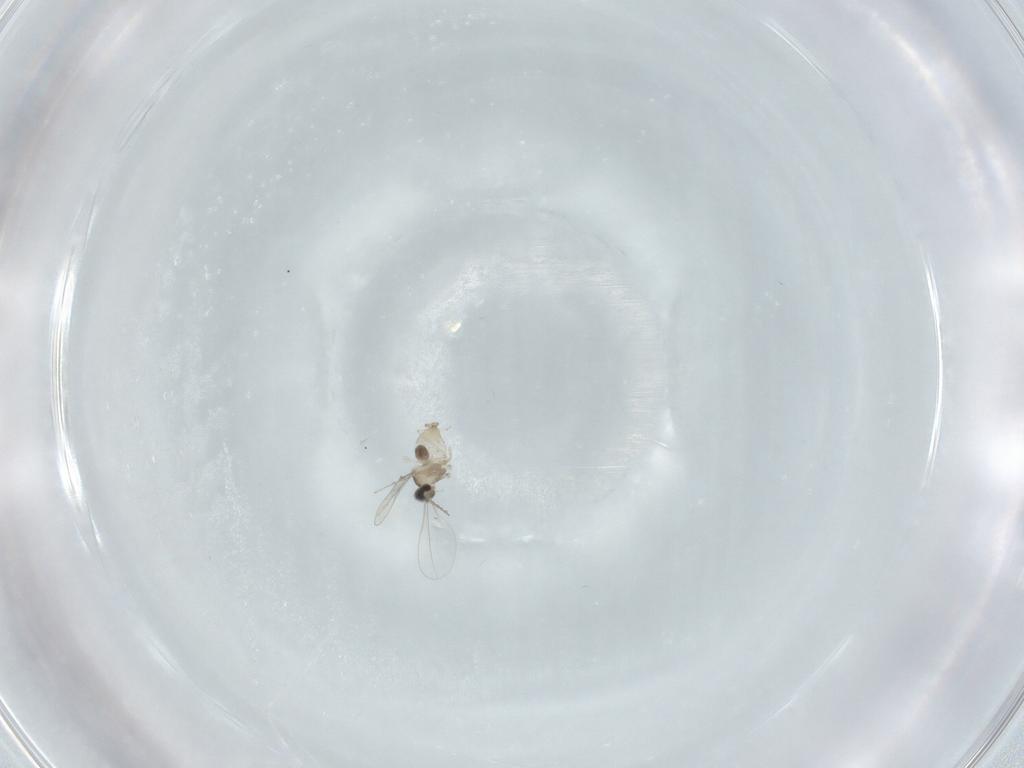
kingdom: Animalia
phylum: Arthropoda
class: Insecta
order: Diptera
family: Cecidomyiidae
